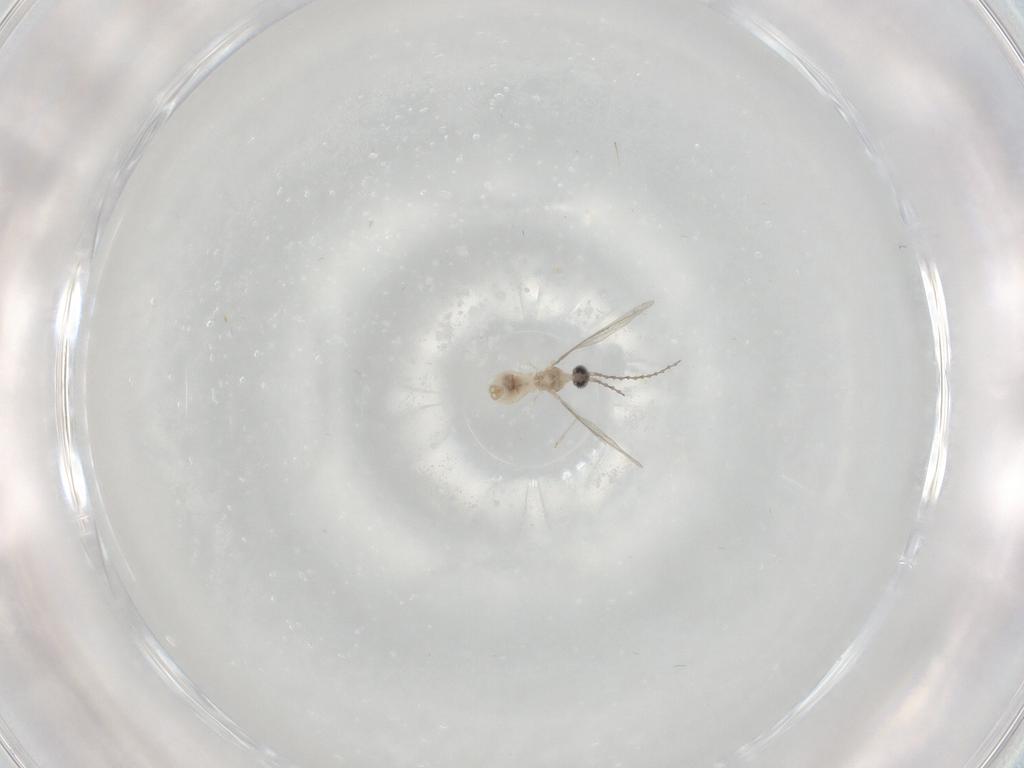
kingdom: Animalia
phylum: Arthropoda
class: Insecta
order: Diptera
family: Cecidomyiidae
